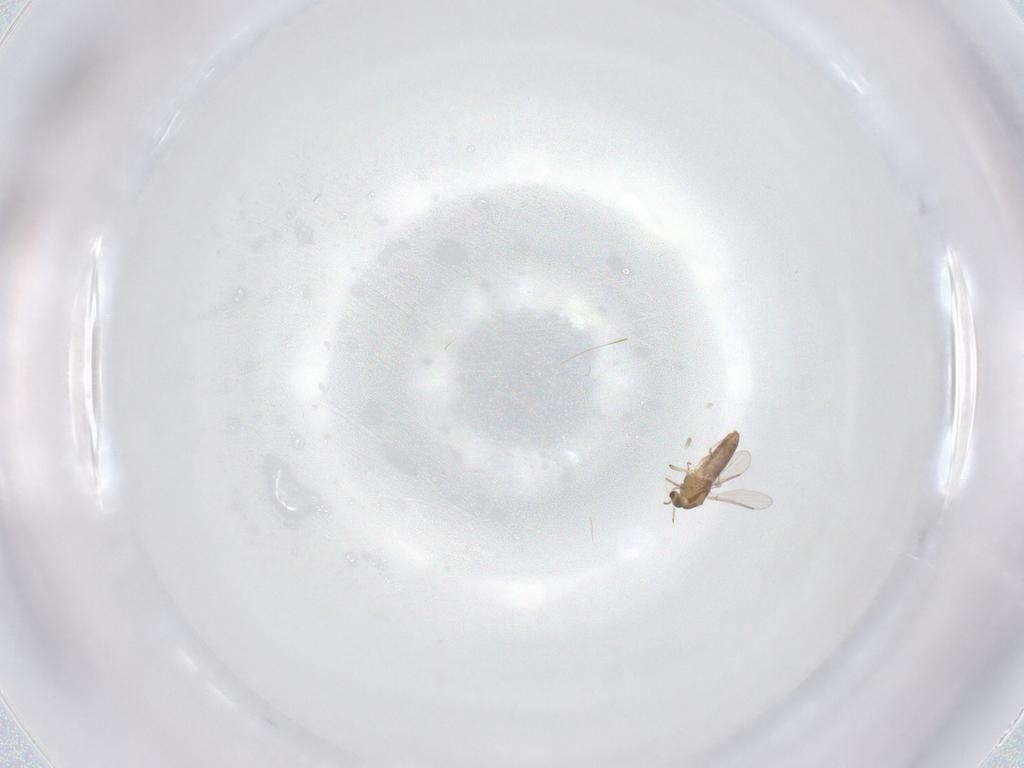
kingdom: Animalia
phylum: Arthropoda
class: Insecta
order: Diptera
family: Chironomidae
